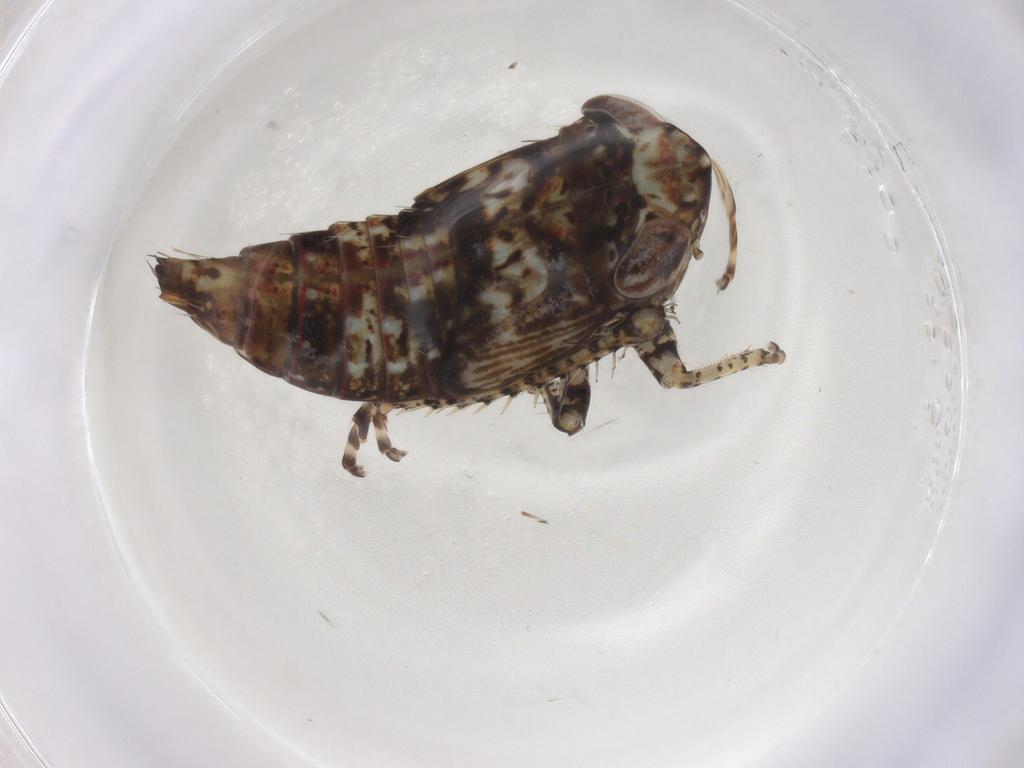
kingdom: Animalia
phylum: Arthropoda
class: Insecta
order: Hemiptera
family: Cicadellidae
